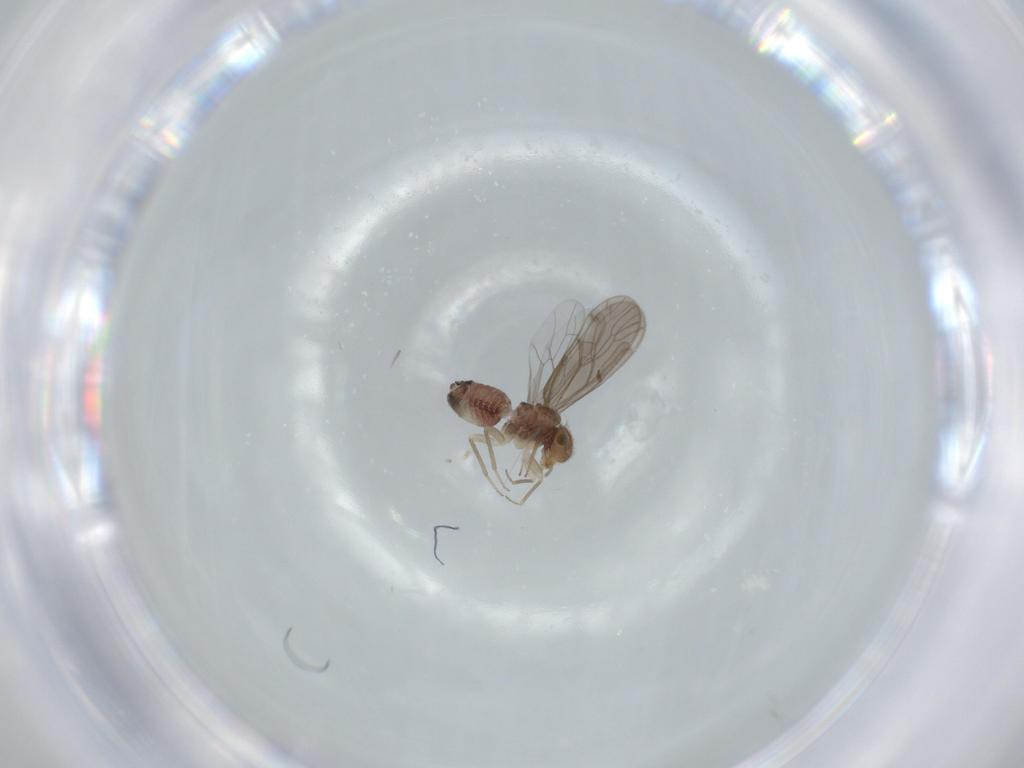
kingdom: Animalia
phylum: Arthropoda
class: Insecta
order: Psocodea
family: Ectopsocidae
